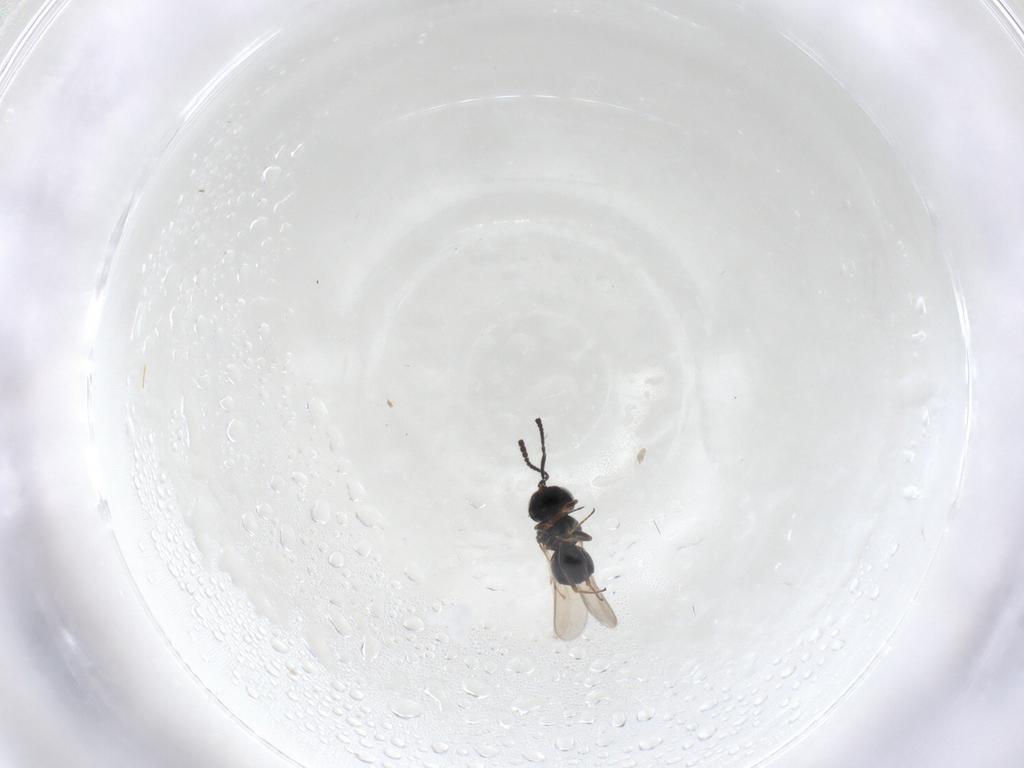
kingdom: Animalia
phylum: Arthropoda
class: Insecta
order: Hymenoptera
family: Scelionidae
